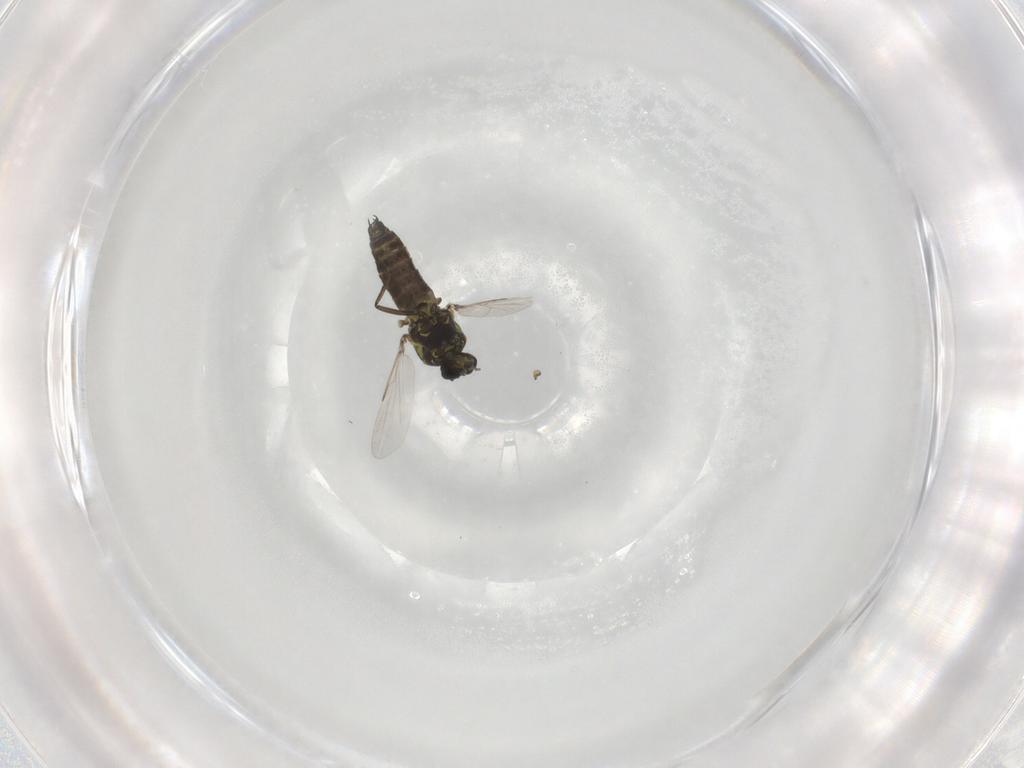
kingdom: Animalia
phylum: Arthropoda
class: Insecta
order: Diptera
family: Ceratopogonidae
